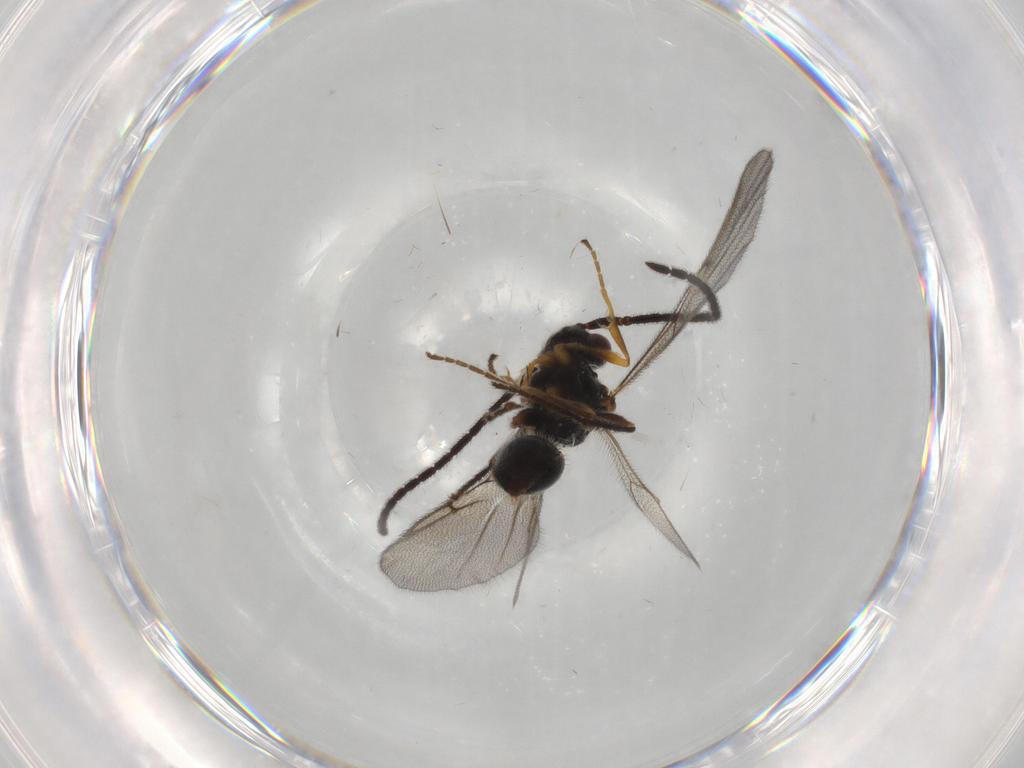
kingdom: Animalia
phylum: Arthropoda
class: Insecta
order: Hymenoptera
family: Diapriidae
